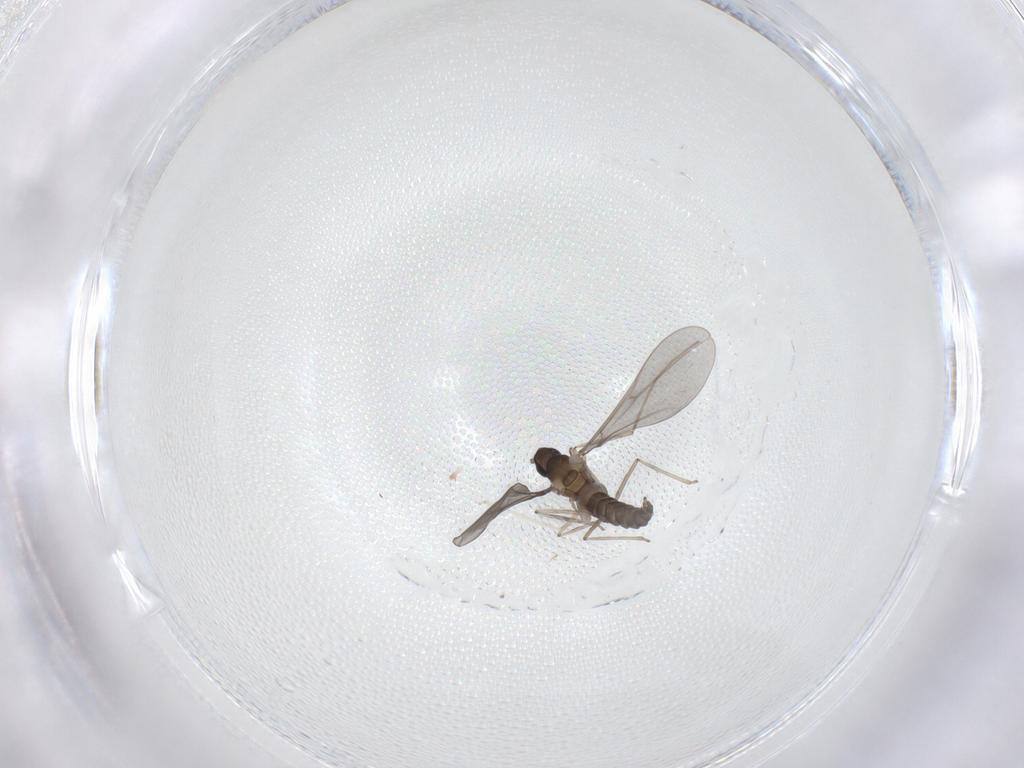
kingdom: Animalia
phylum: Arthropoda
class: Insecta
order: Diptera
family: Cecidomyiidae
